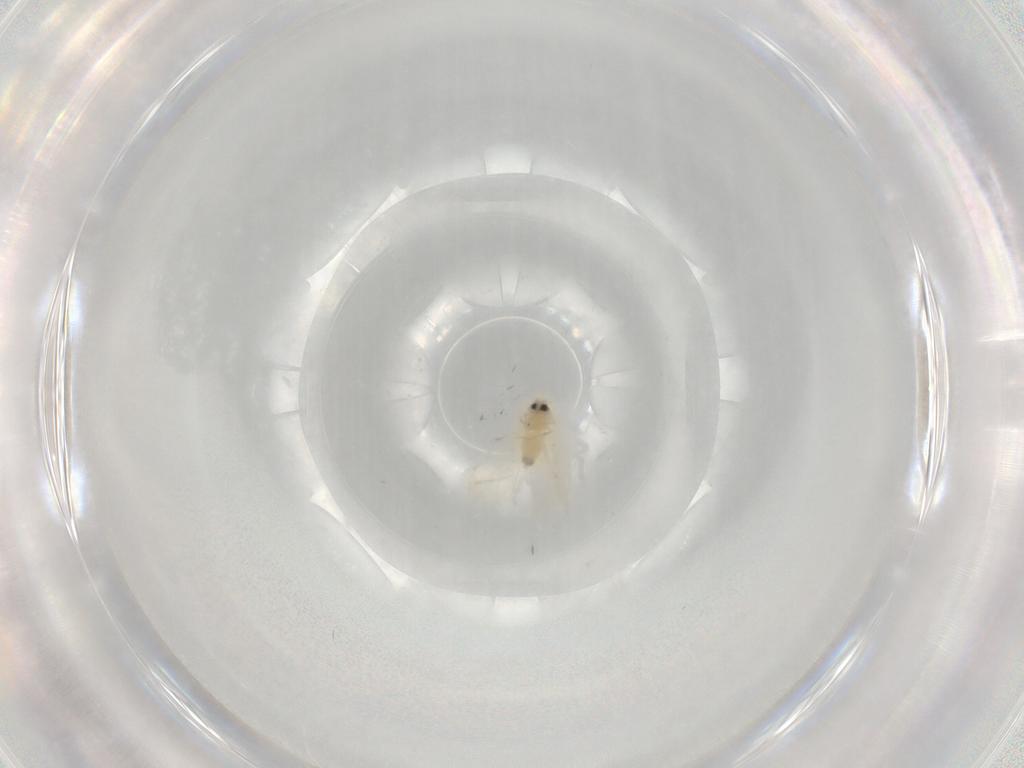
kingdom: Animalia
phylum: Arthropoda
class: Insecta
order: Hemiptera
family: Aleyrodidae
